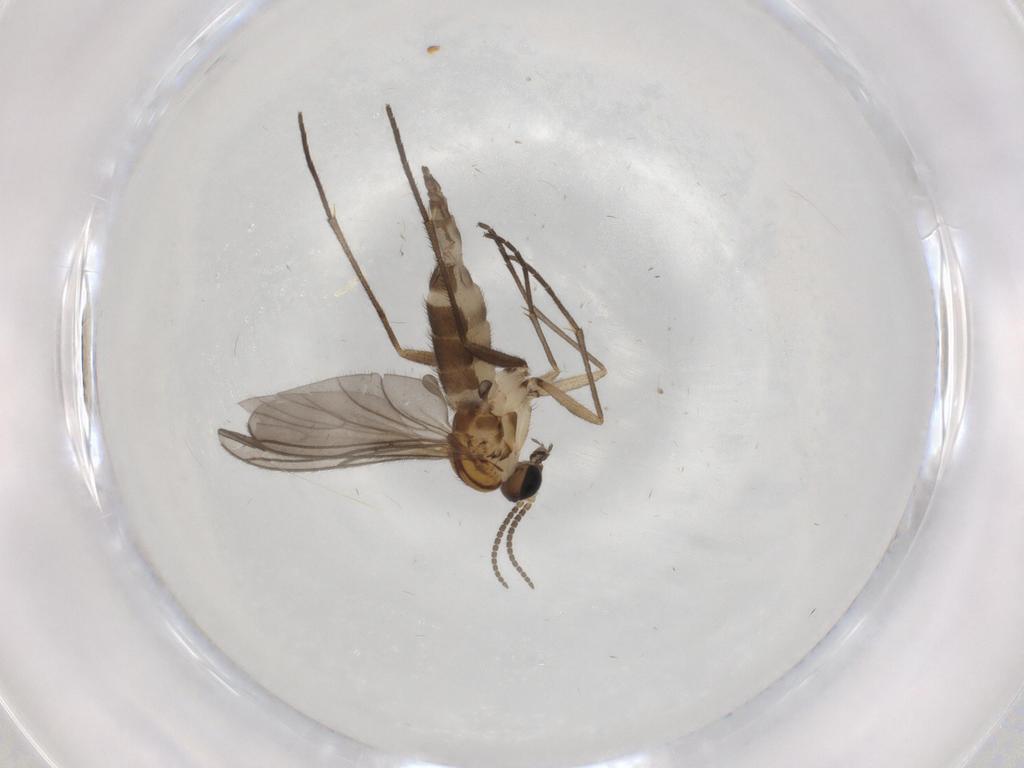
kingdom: Animalia
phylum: Arthropoda
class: Insecta
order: Diptera
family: Sciaridae
